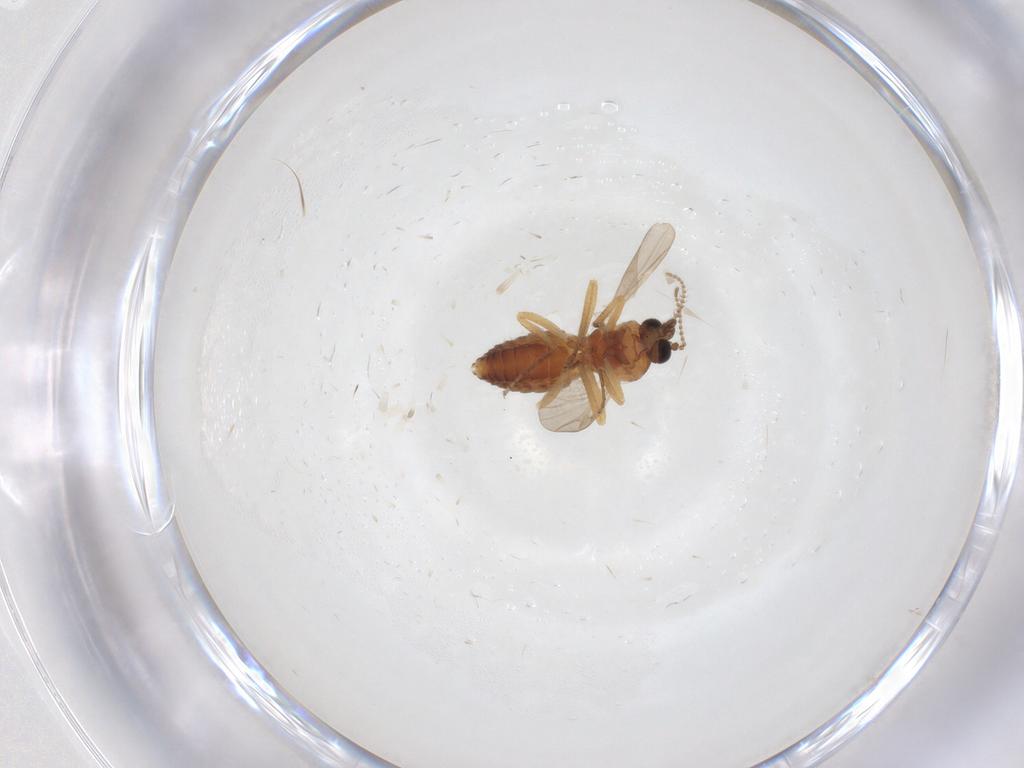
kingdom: Animalia
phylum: Arthropoda
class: Insecta
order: Diptera
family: Ceratopogonidae
